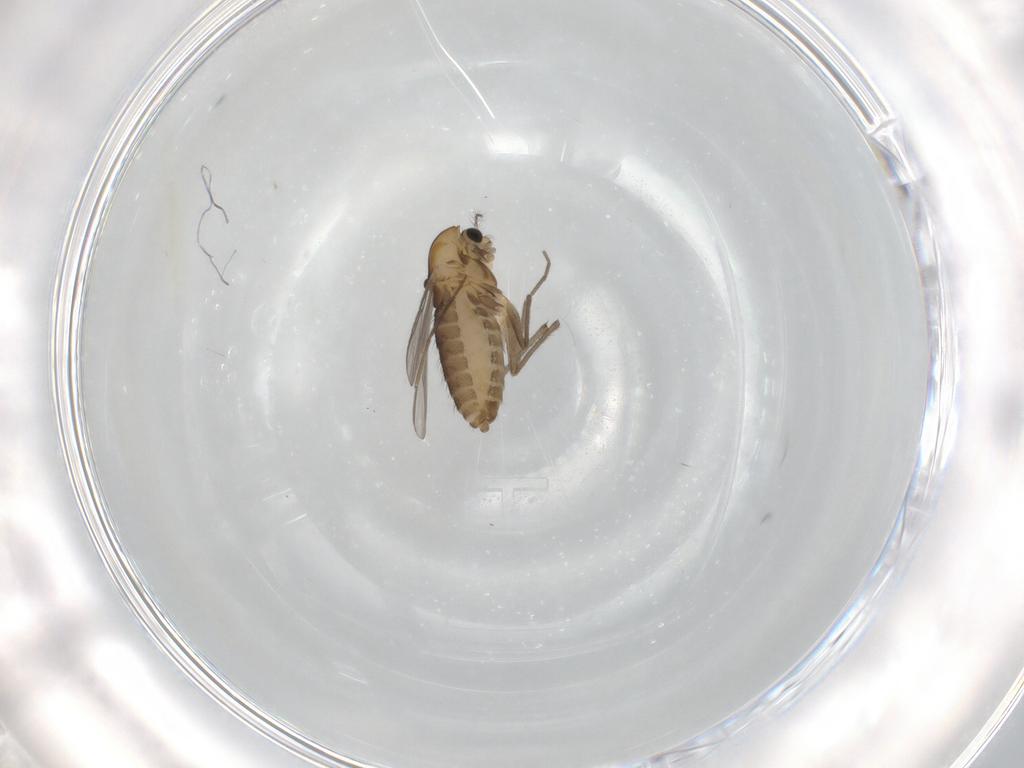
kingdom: Animalia
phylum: Arthropoda
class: Insecta
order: Diptera
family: Chironomidae
